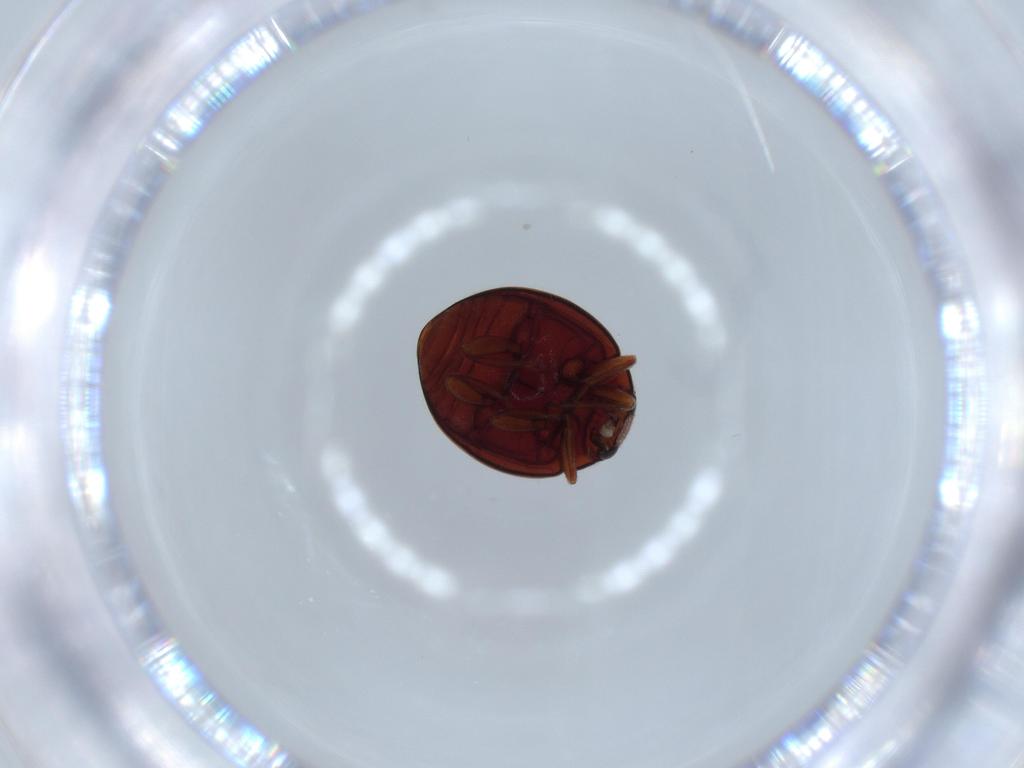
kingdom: Animalia
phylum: Arthropoda
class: Insecta
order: Coleoptera
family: Coccinellidae
